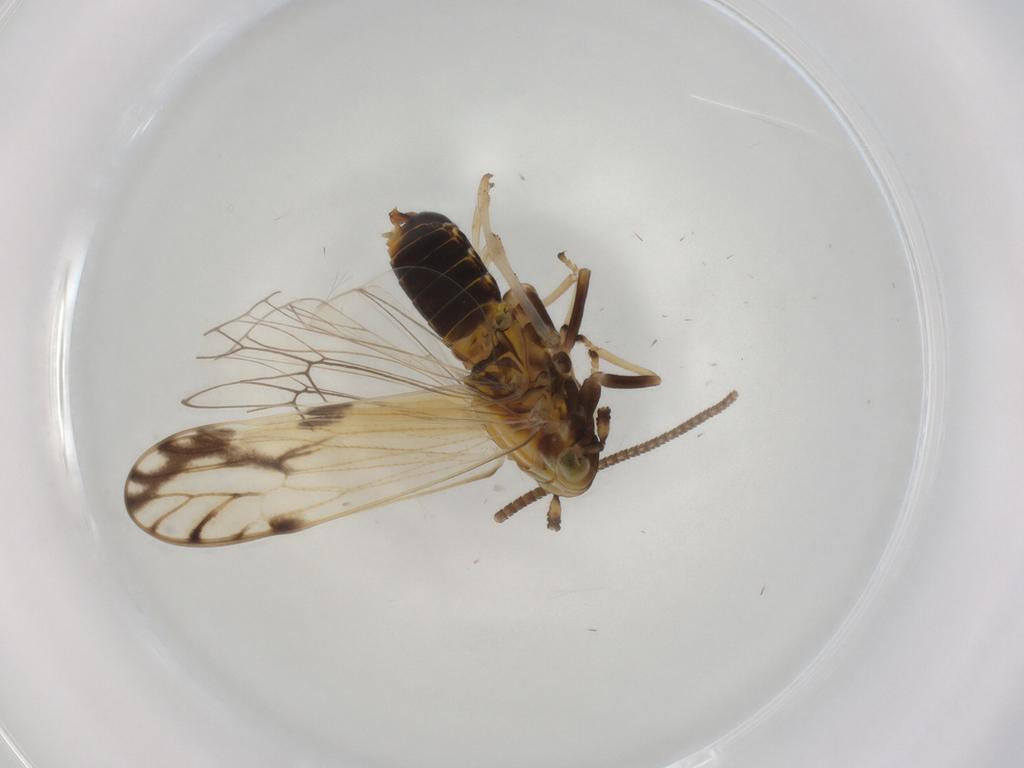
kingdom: Animalia
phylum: Arthropoda
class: Insecta
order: Hemiptera
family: Delphacidae
